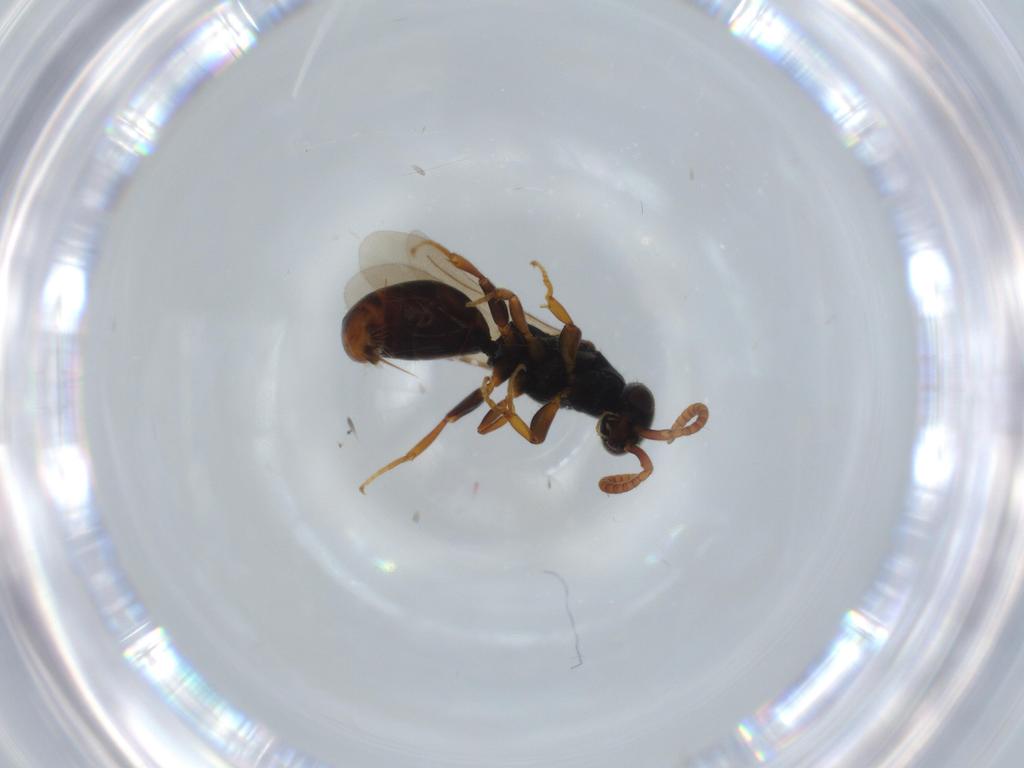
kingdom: Animalia
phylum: Arthropoda
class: Insecta
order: Hymenoptera
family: Bethylidae
